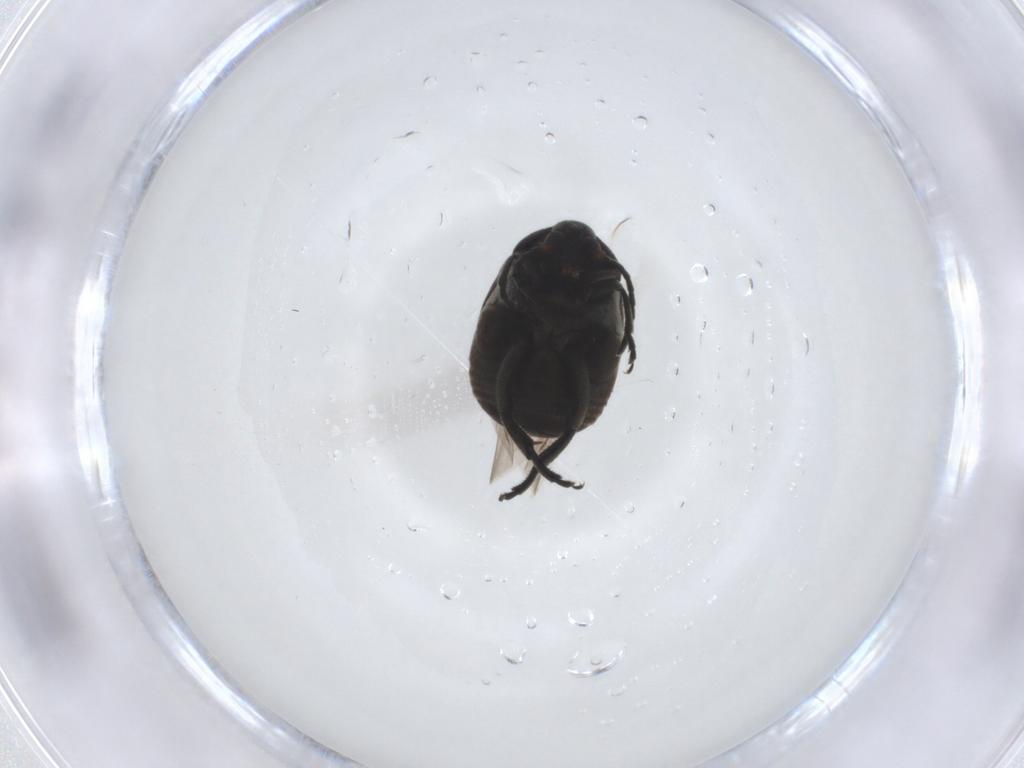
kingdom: Animalia
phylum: Arthropoda
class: Insecta
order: Coleoptera
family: Chrysomelidae
